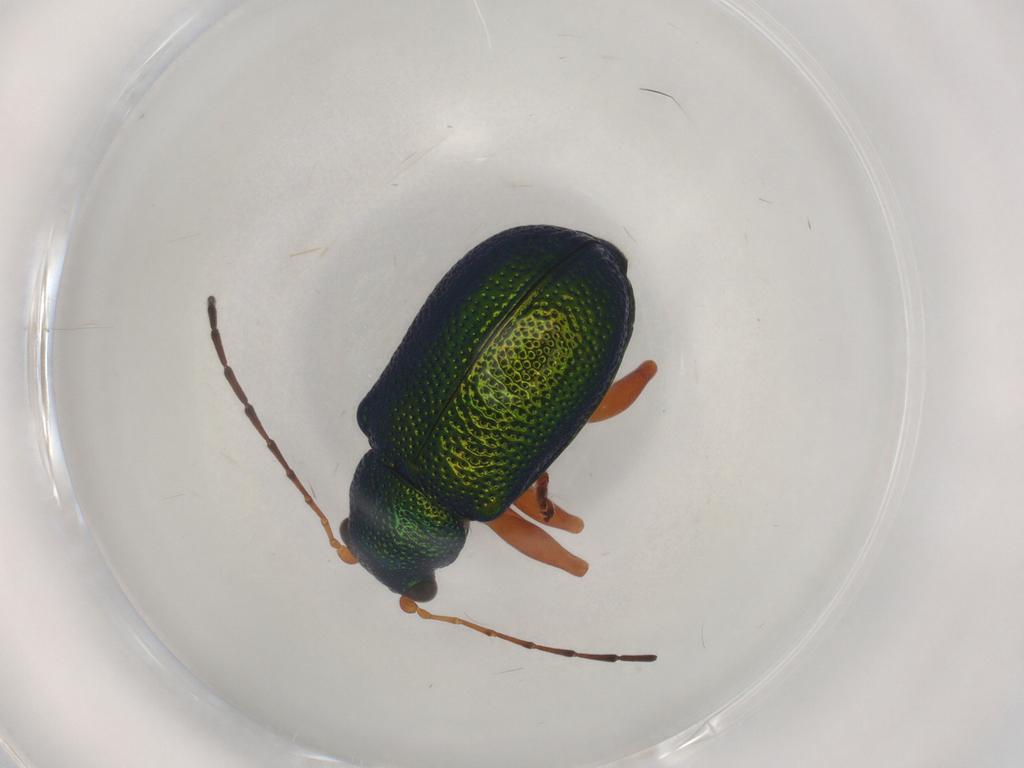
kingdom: Animalia
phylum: Arthropoda
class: Insecta
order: Coleoptera
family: Chrysomelidae
